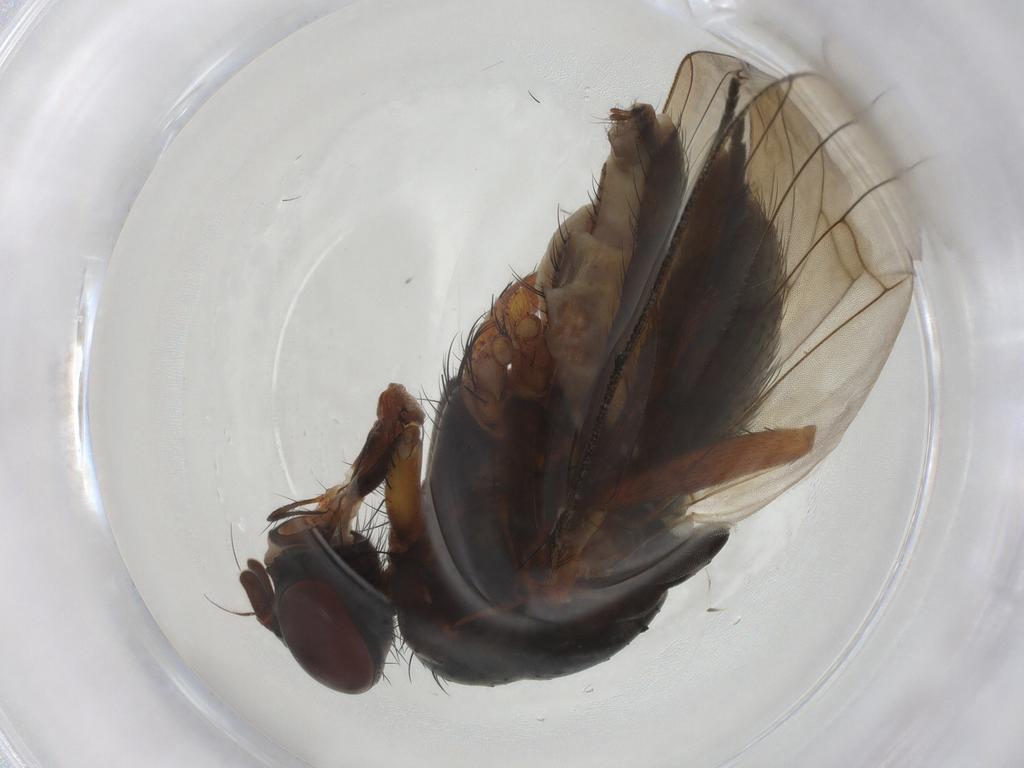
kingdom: Animalia
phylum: Arthropoda
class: Insecta
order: Diptera
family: Anthomyiidae
